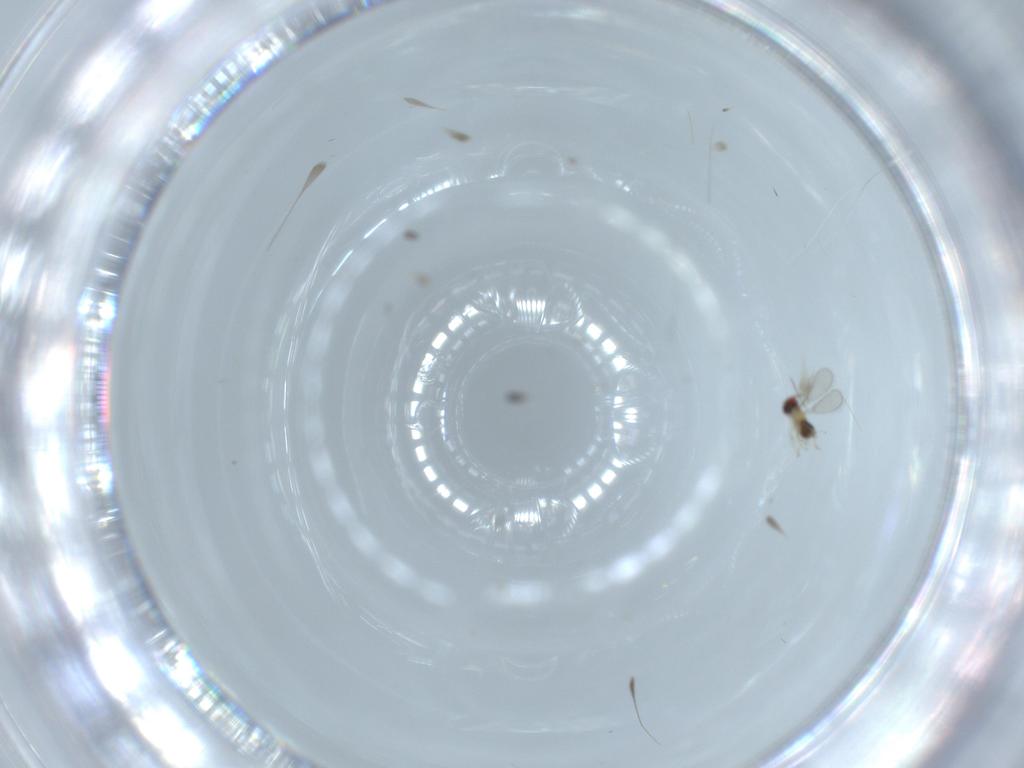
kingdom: Animalia
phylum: Arthropoda
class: Insecta
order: Hymenoptera
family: Aphelinidae
